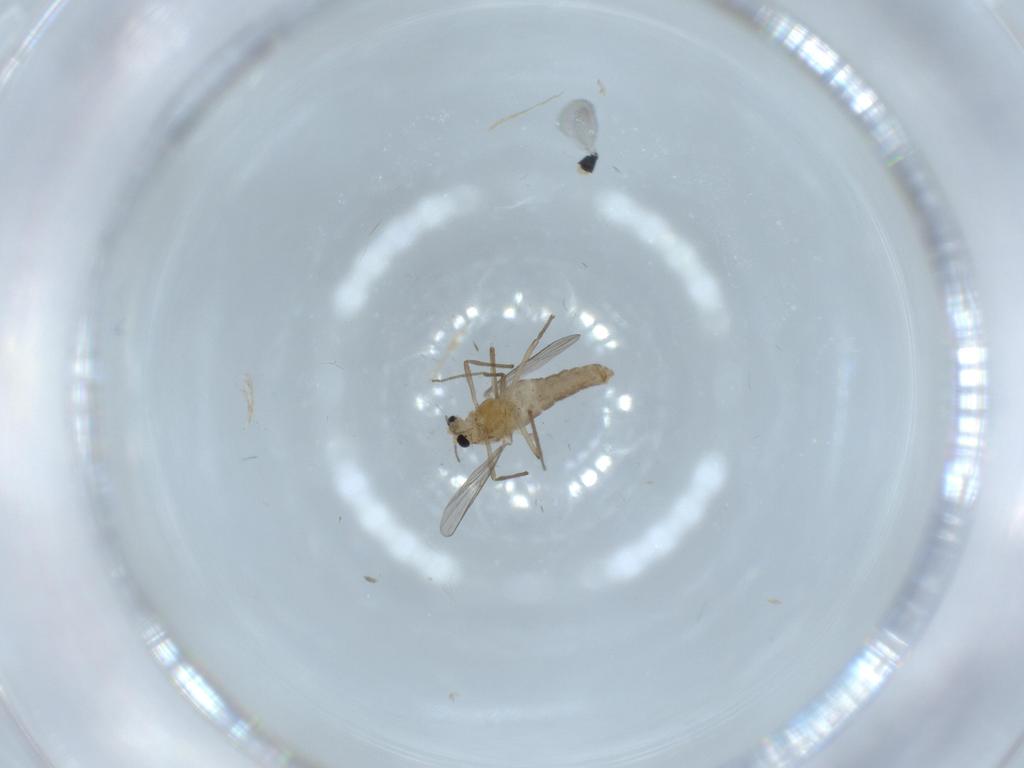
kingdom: Animalia
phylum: Arthropoda
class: Insecta
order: Diptera
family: Chironomidae
